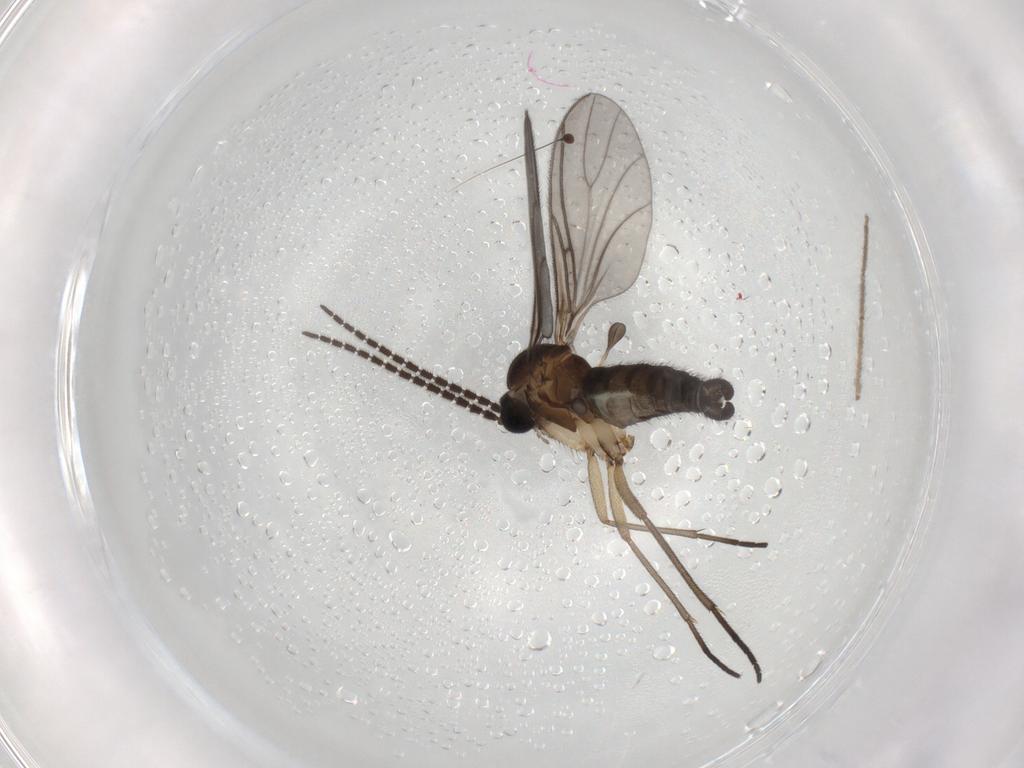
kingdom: Animalia
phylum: Arthropoda
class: Insecta
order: Diptera
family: Sciaridae
